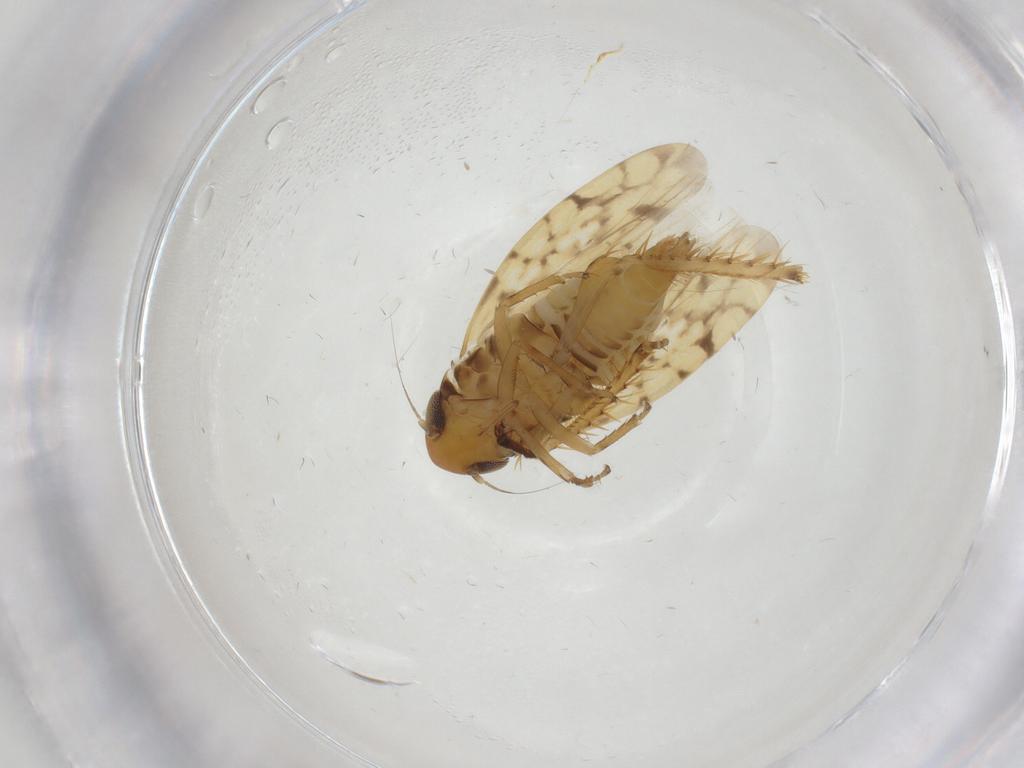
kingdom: Animalia
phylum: Arthropoda
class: Insecta
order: Hemiptera
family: Cicadellidae
